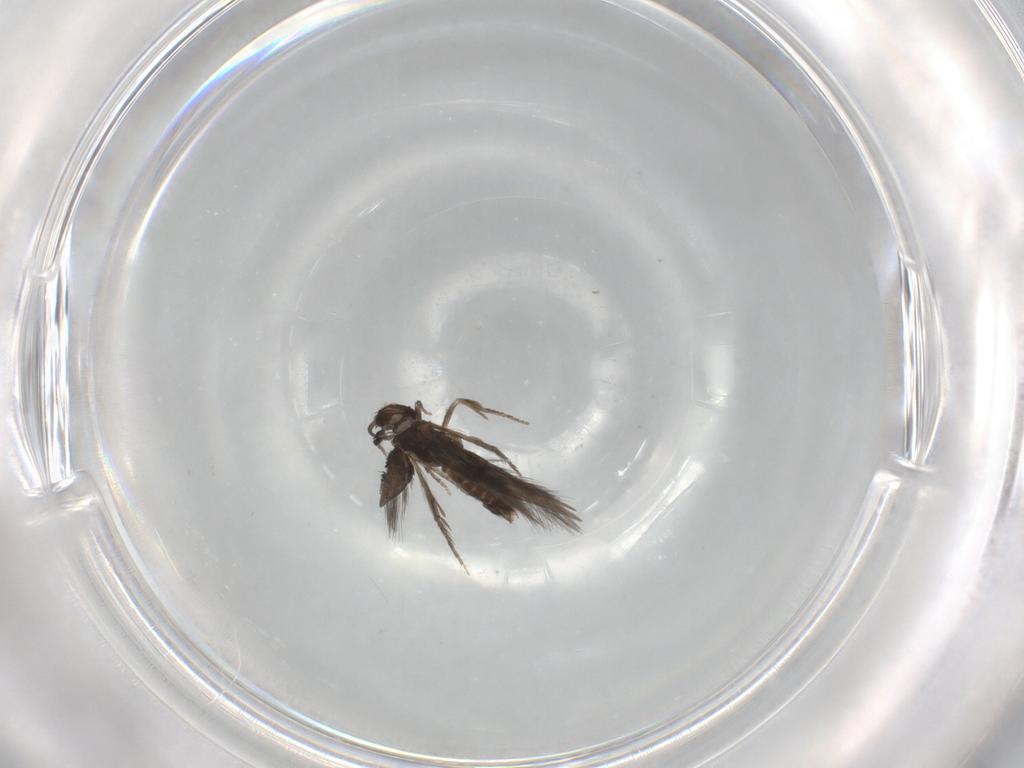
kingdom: Animalia
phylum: Arthropoda
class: Insecta
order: Trichoptera
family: Hydroptilidae
